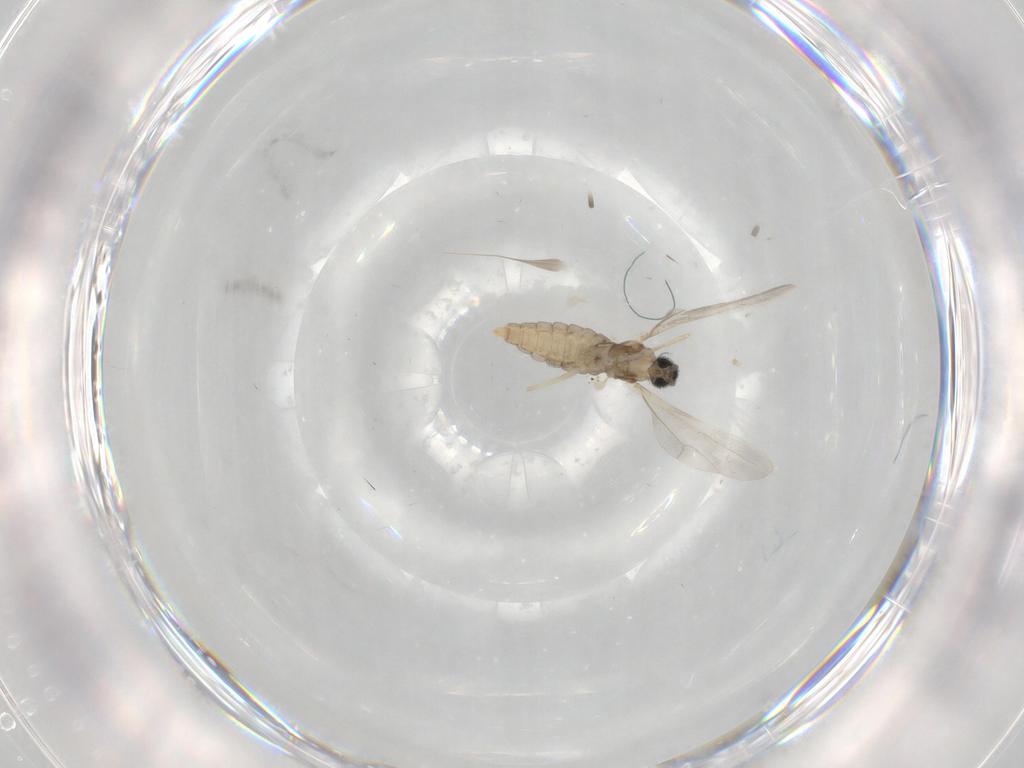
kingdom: Animalia
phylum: Arthropoda
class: Insecta
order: Diptera
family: Cecidomyiidae
